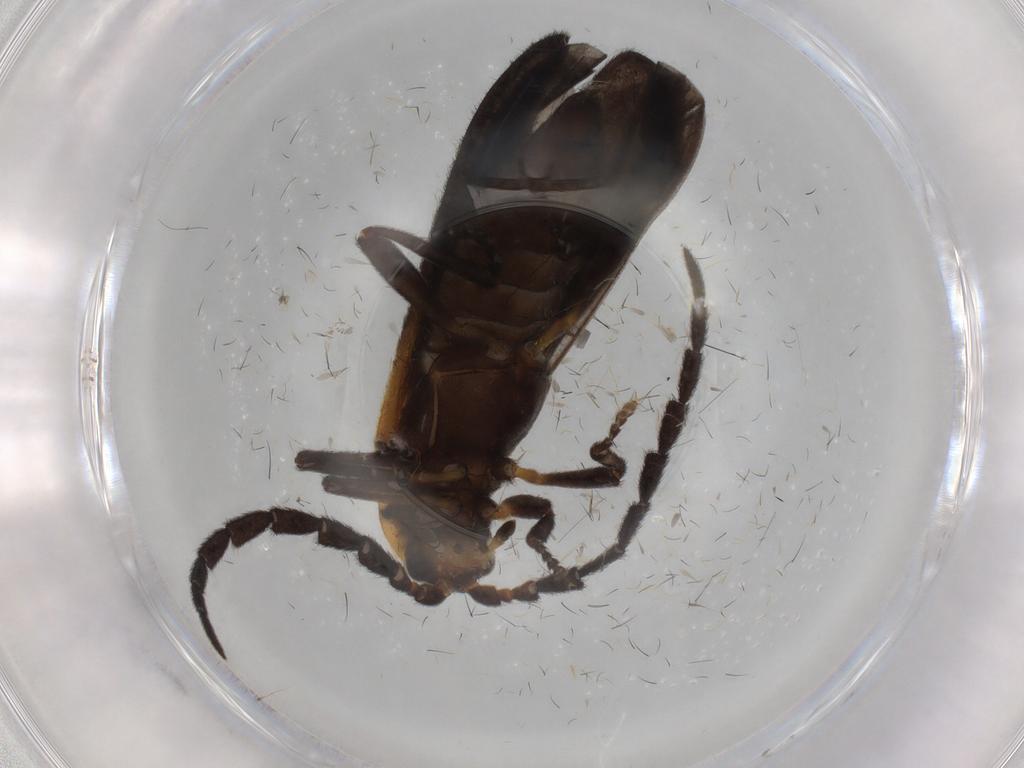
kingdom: Animalia
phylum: Arthropoda
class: Insecta
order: Coleoptera
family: Lycidae
